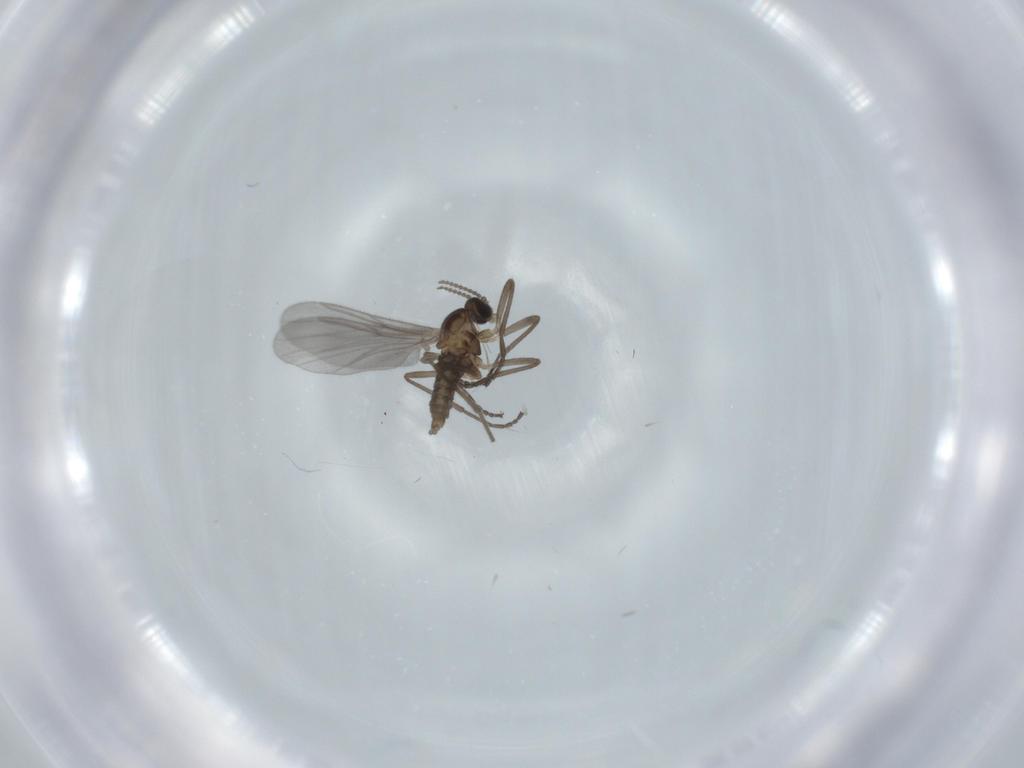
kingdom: Animalia
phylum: Arthropoda
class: Insecta
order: Diptera
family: Cecidomyiidae
